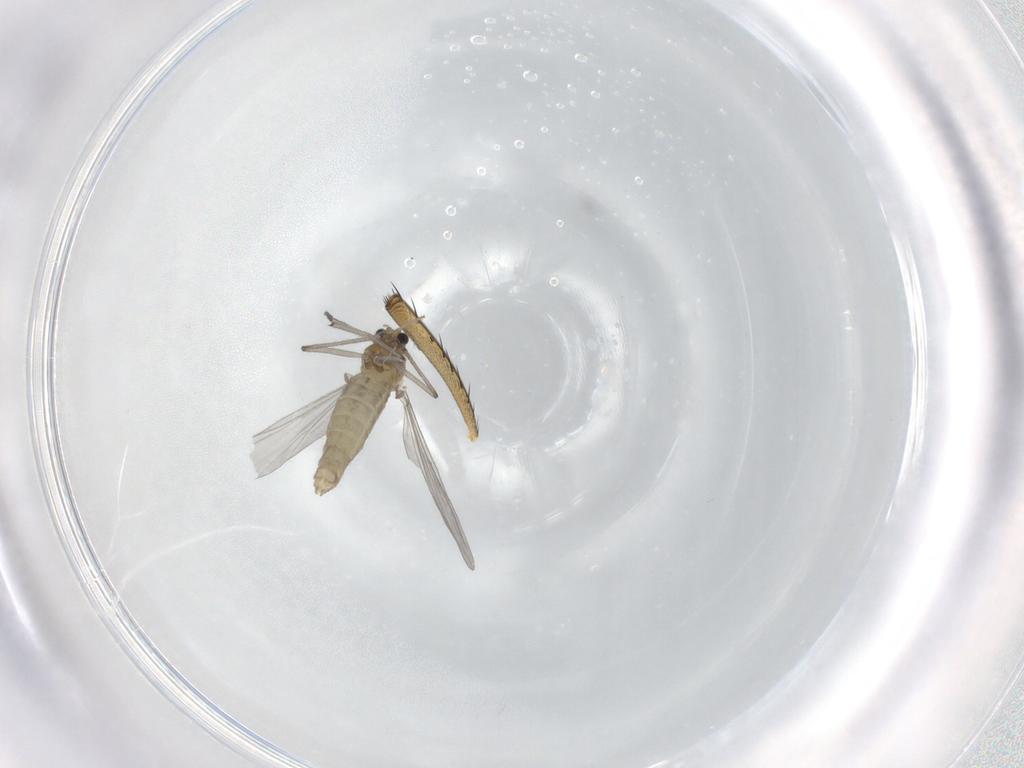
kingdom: Animalia
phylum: Arthropoda
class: Insecta
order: Diptera
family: Chironomidae
